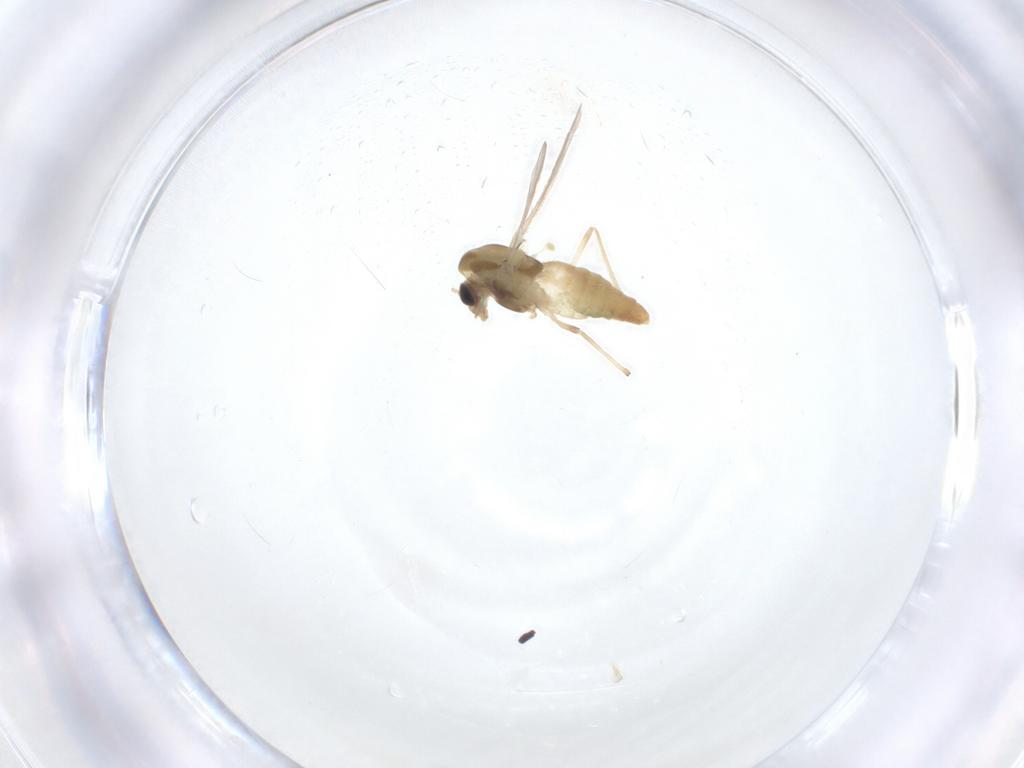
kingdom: Animalia
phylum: Arthropoda
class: Insecta
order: Diptera
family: Chironomidae
